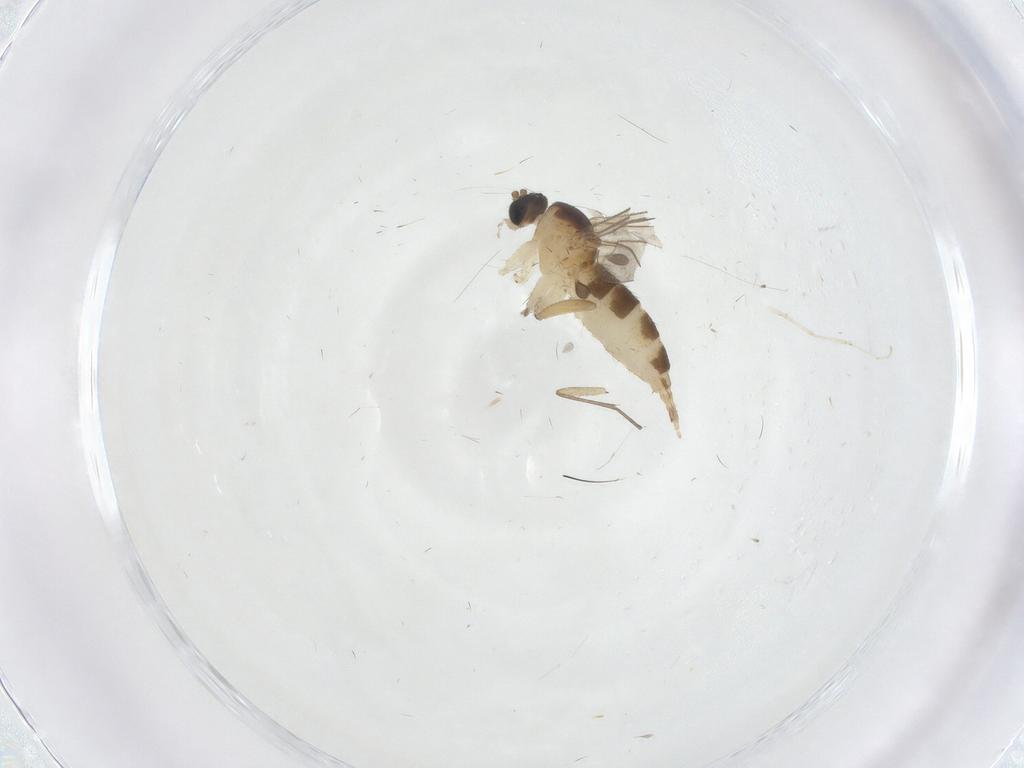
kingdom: Animalia
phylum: Arthropoda
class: Insecta
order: Diptera
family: Sciaridae
